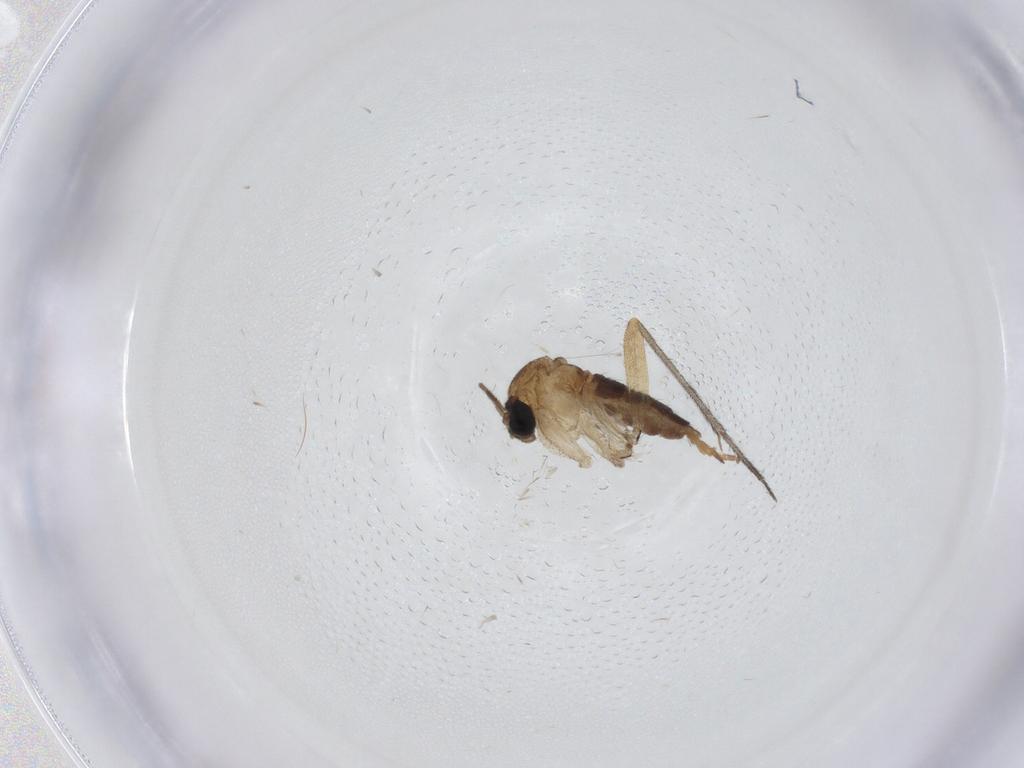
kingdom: Animalia
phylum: Arthropoda
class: Insecta
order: Diptera
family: Sciaridae
